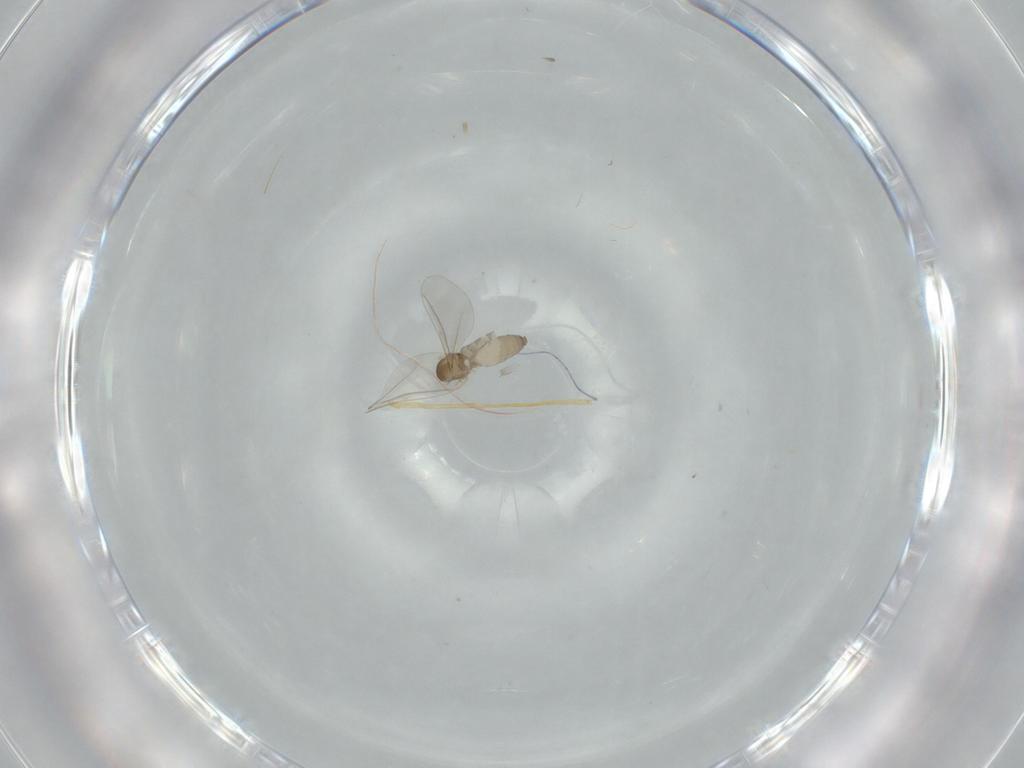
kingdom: Animalia
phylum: Arthropoda
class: Insecta
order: Diptera
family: Cecidomyiidae
